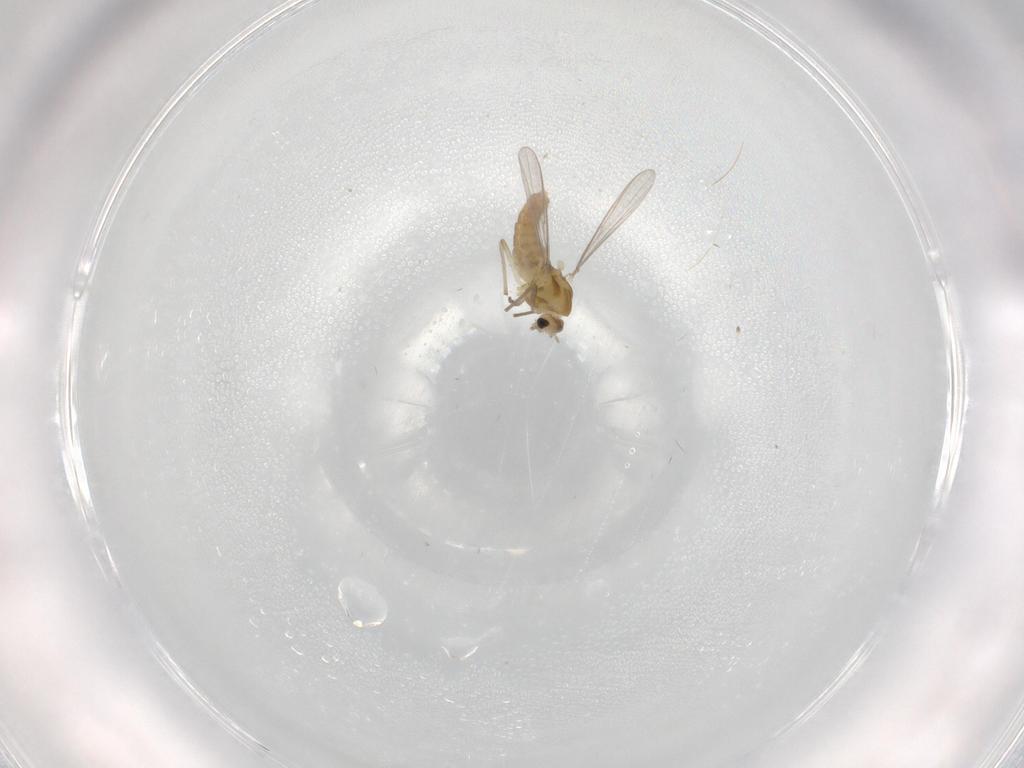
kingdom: Animalia
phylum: Arthropoda
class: Insecta
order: Diptera
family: Chironomidae
